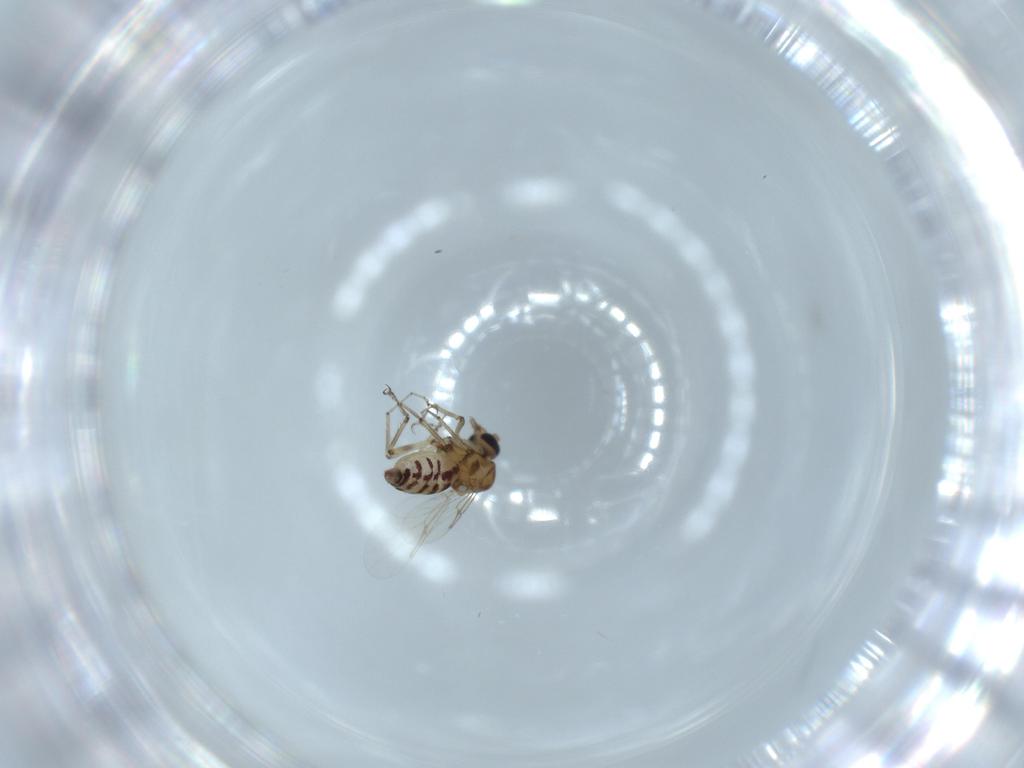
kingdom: Animalia
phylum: Arthropoda
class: Insecta
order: Diptera
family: Ceratopogonidae
